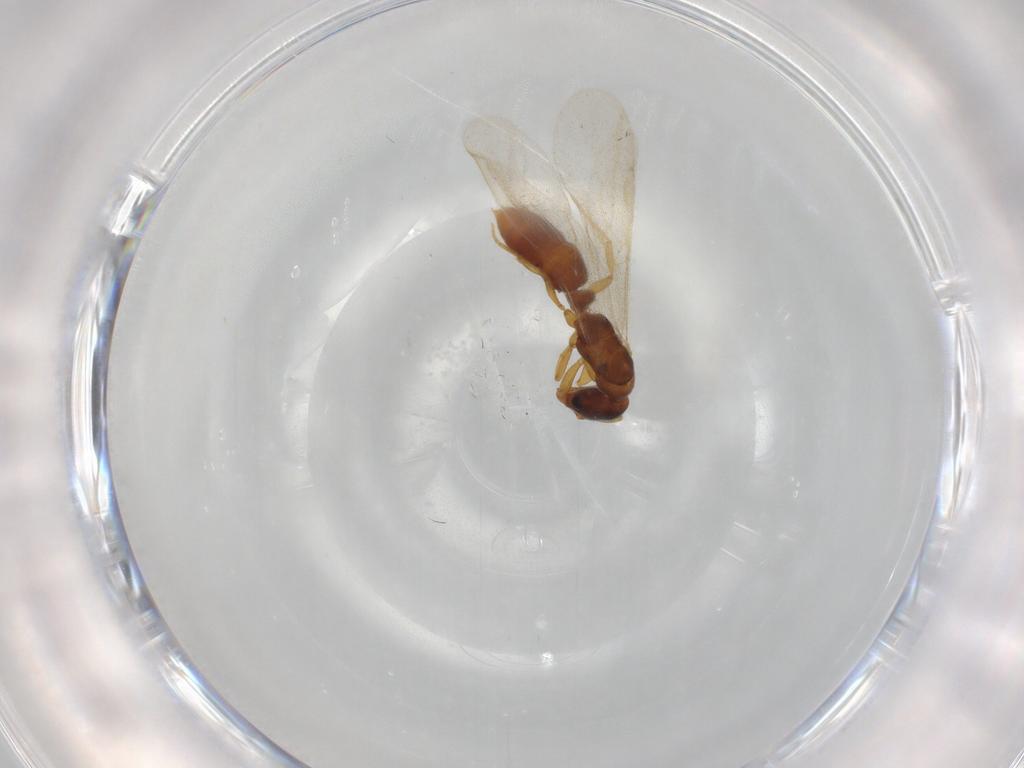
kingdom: Animalia
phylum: Arthropoda
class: Insecta
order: Hymenoptera
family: Formicidae
